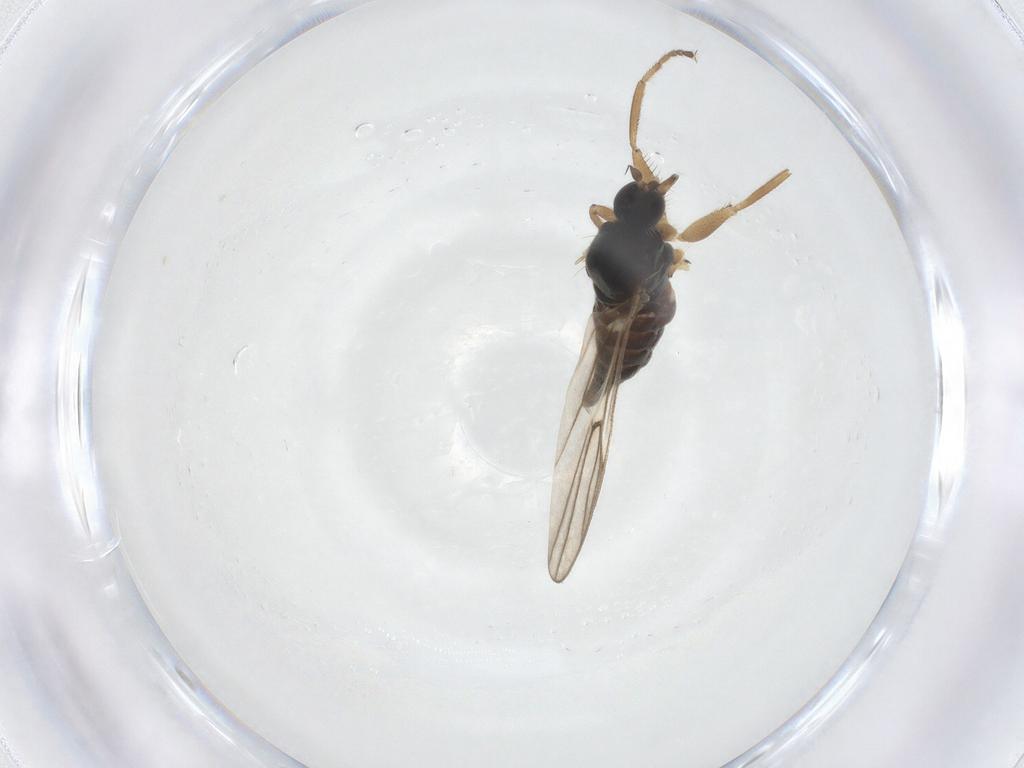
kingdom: Animalia
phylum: Arthropoda
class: Insecta
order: Diptera
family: Hybotidae
